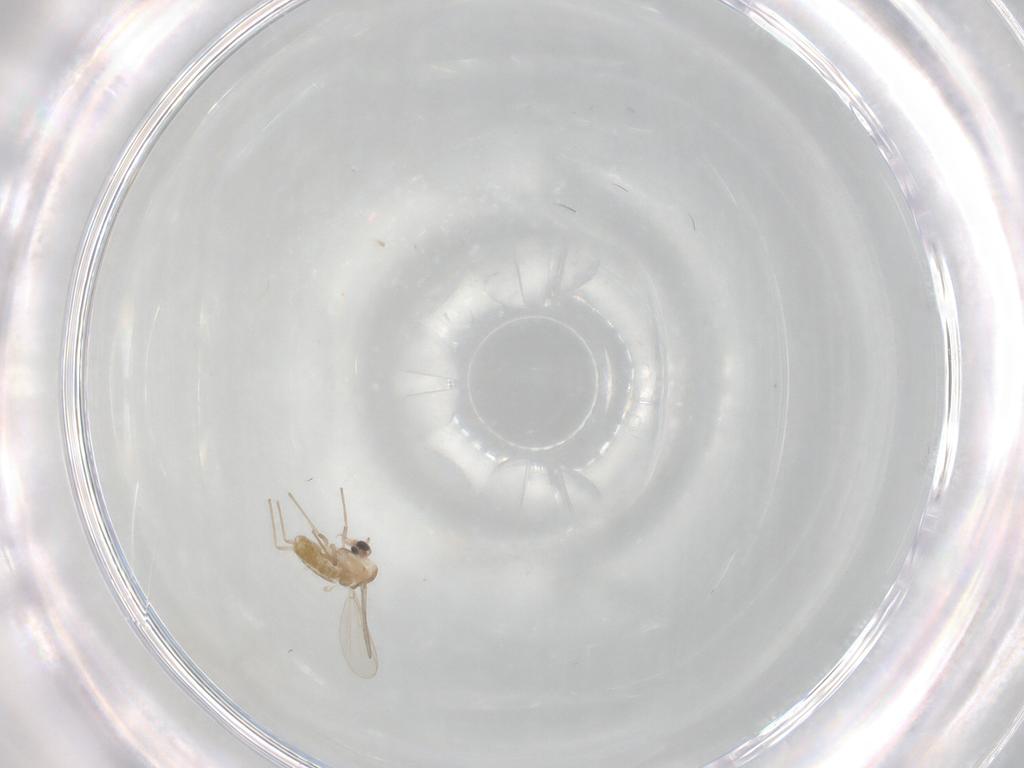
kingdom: Animalia
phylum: Arthropoda
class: Insecta
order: Diptera
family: Chironomidae
